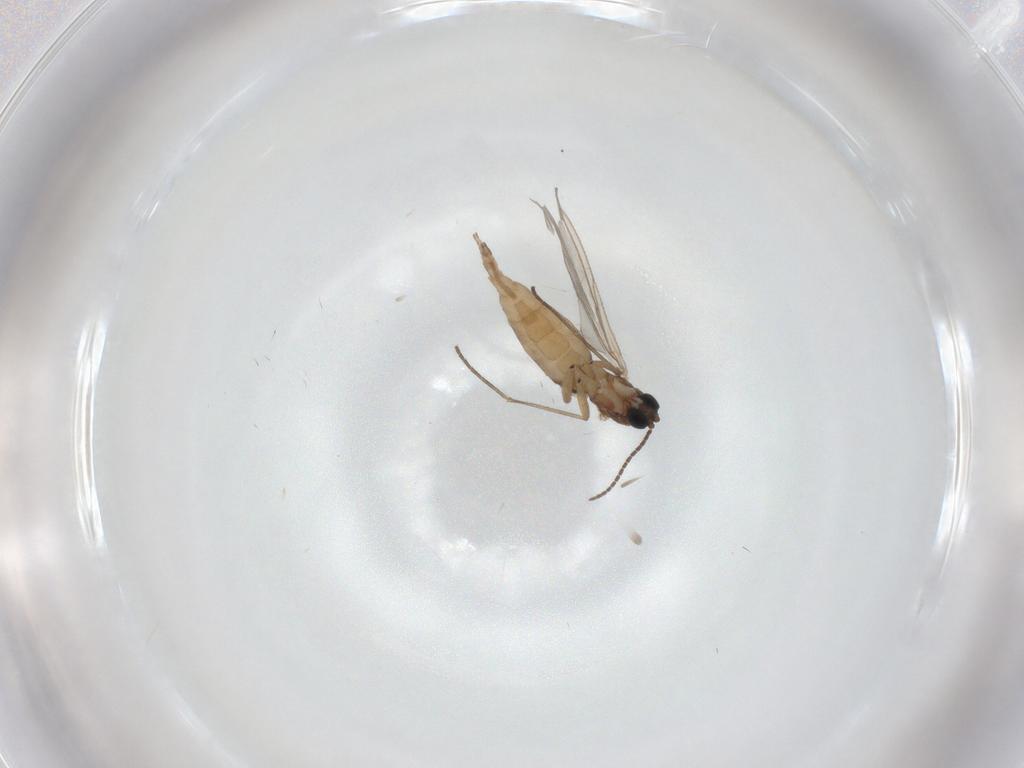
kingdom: Animalia
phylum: Arthropoda
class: Insecta
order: Diptera
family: Sciaridae
